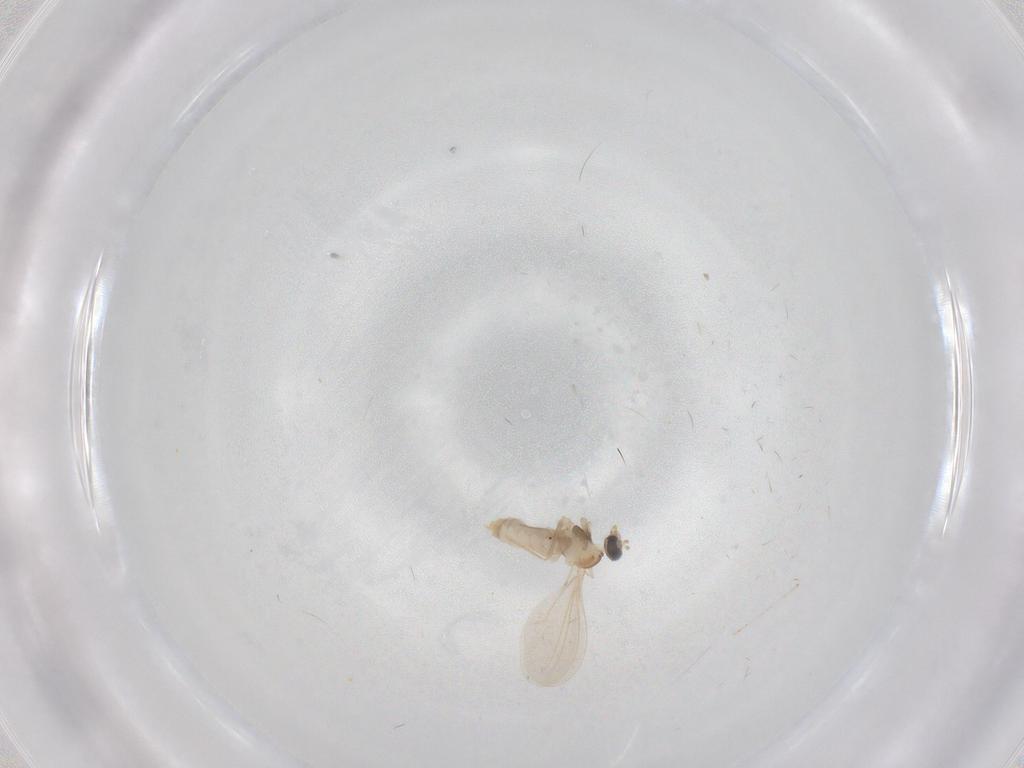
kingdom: Animalia
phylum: Arthropoda
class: Insecta
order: Diptera
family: Cecidomyiidae
